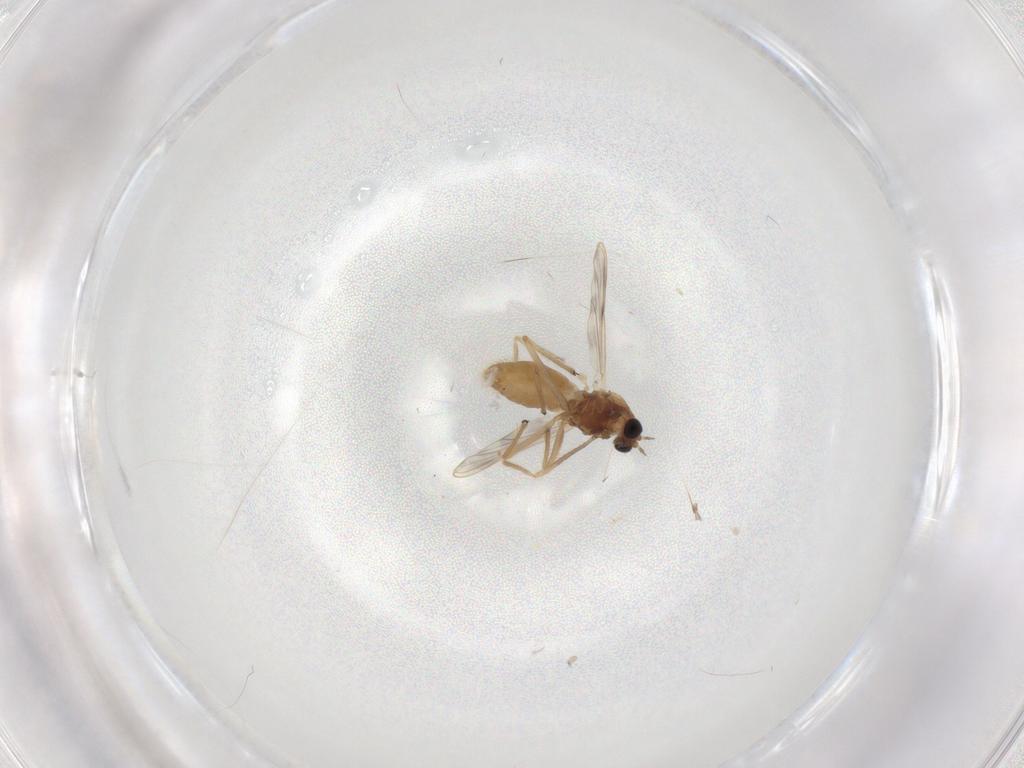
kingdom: Animalia
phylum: Arthropoda
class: Insecta
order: Diptera
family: Chironomidae
